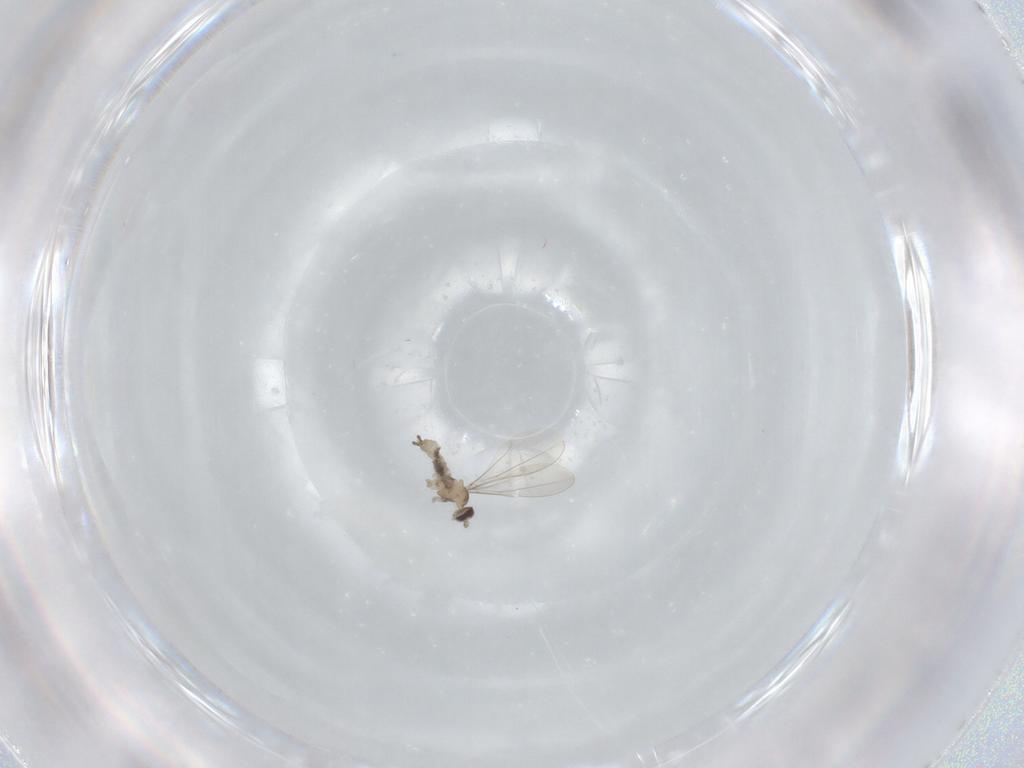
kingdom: Animalia
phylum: Arthropoda
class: Insecta
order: Diptera
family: Cecidomyiidae
